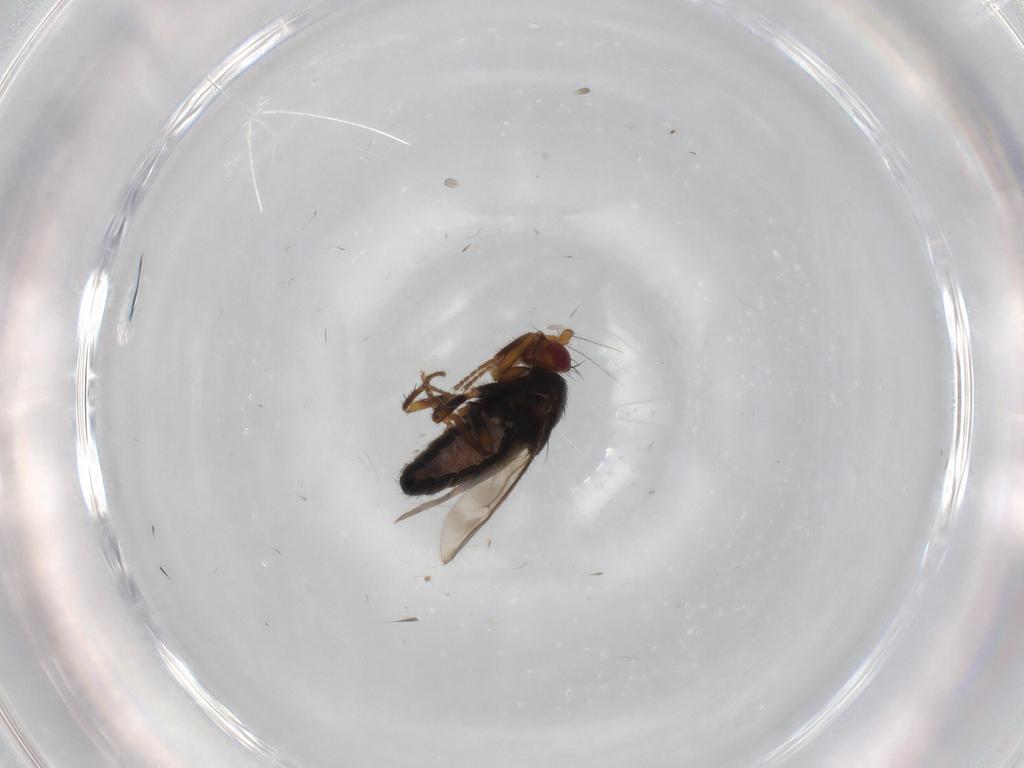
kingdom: Animalia
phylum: Arthropoda
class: Insecta
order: Diptera
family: Sphaeroceridae
